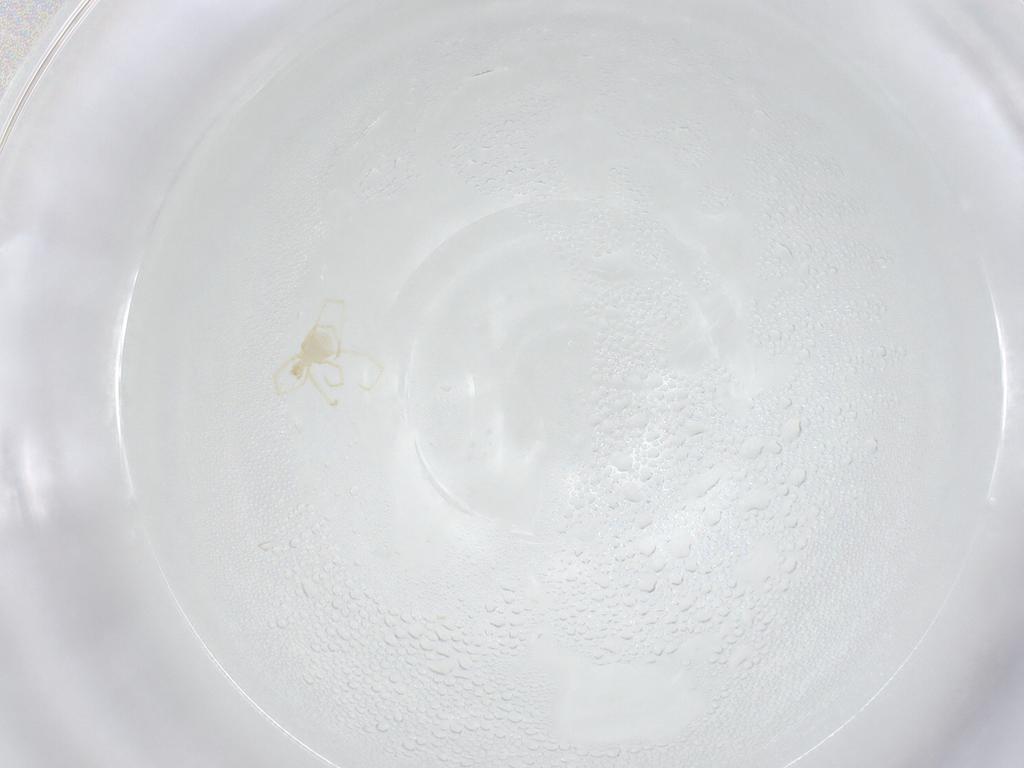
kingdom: Animalia
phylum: Arthropoda
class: Arachnida
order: Trombidiformes
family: Erythraeidae
